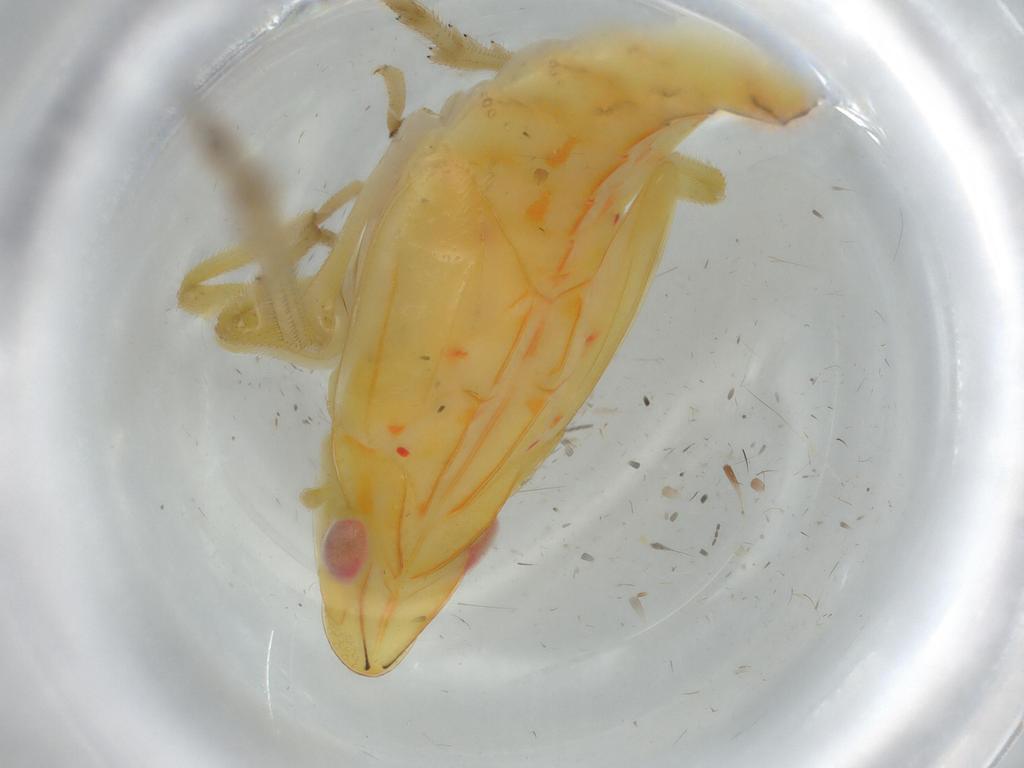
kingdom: Animalia
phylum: Arthropoda
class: Insecta
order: Hemiptera
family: Tropiduchidae
